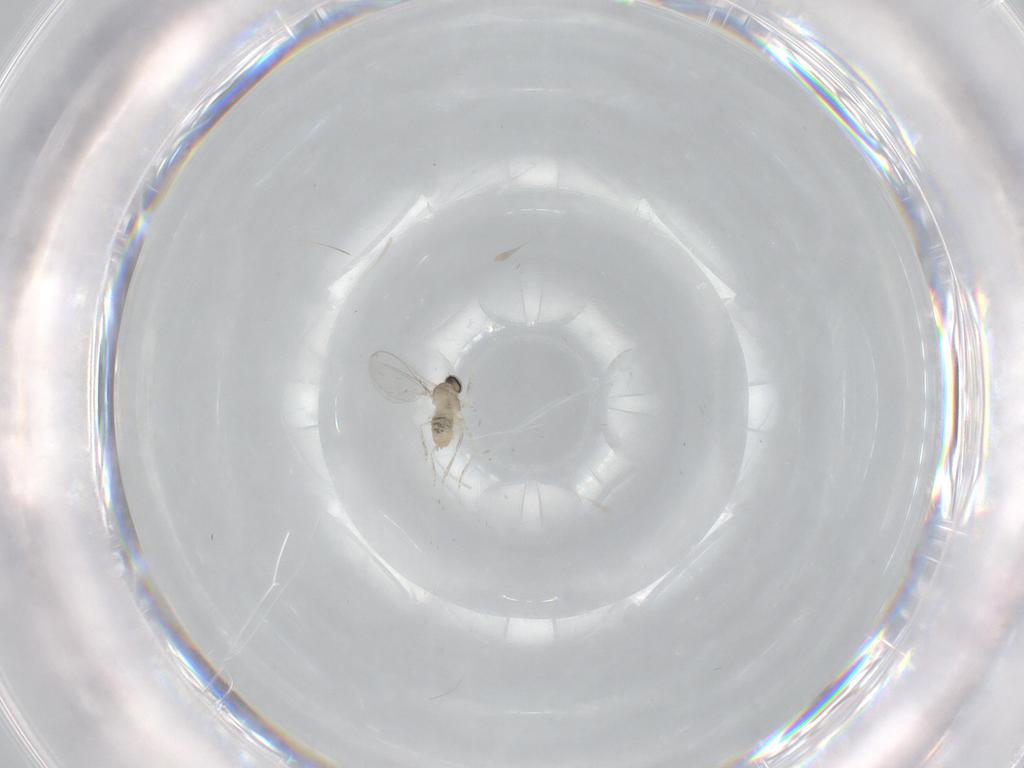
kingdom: Animalia
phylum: Arthropoda
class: Insecta
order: Diptera
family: Cecidomyiidae
